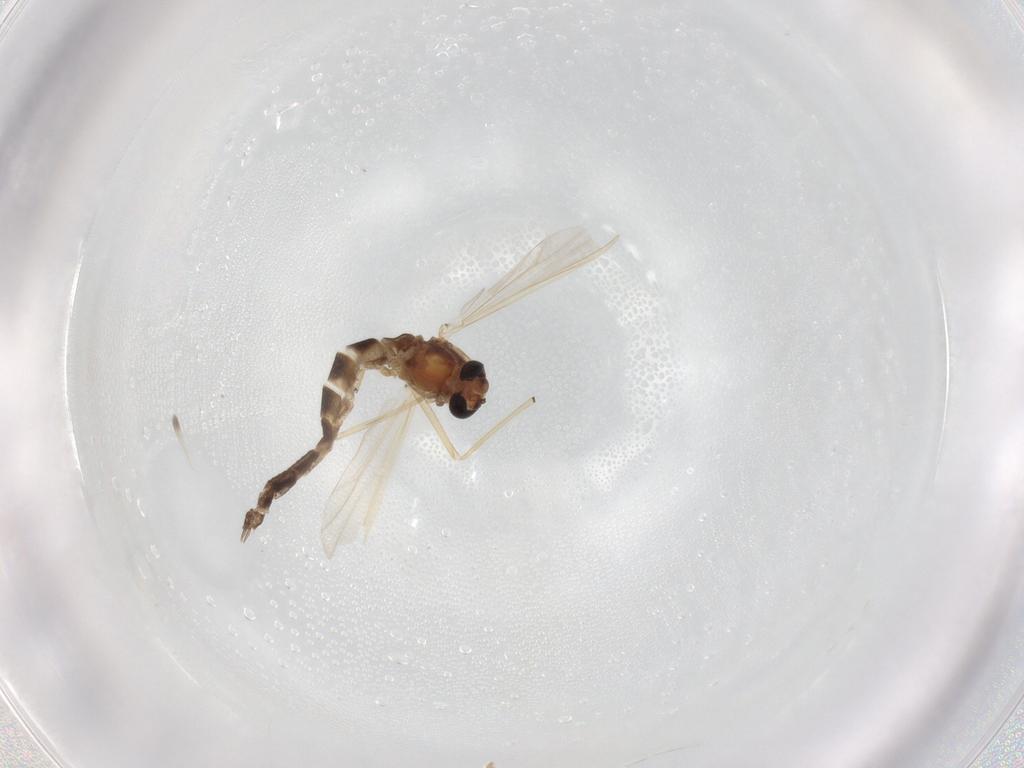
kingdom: Animalia
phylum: Arthropoda
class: Insecta
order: Diptera
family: Chironomidae
